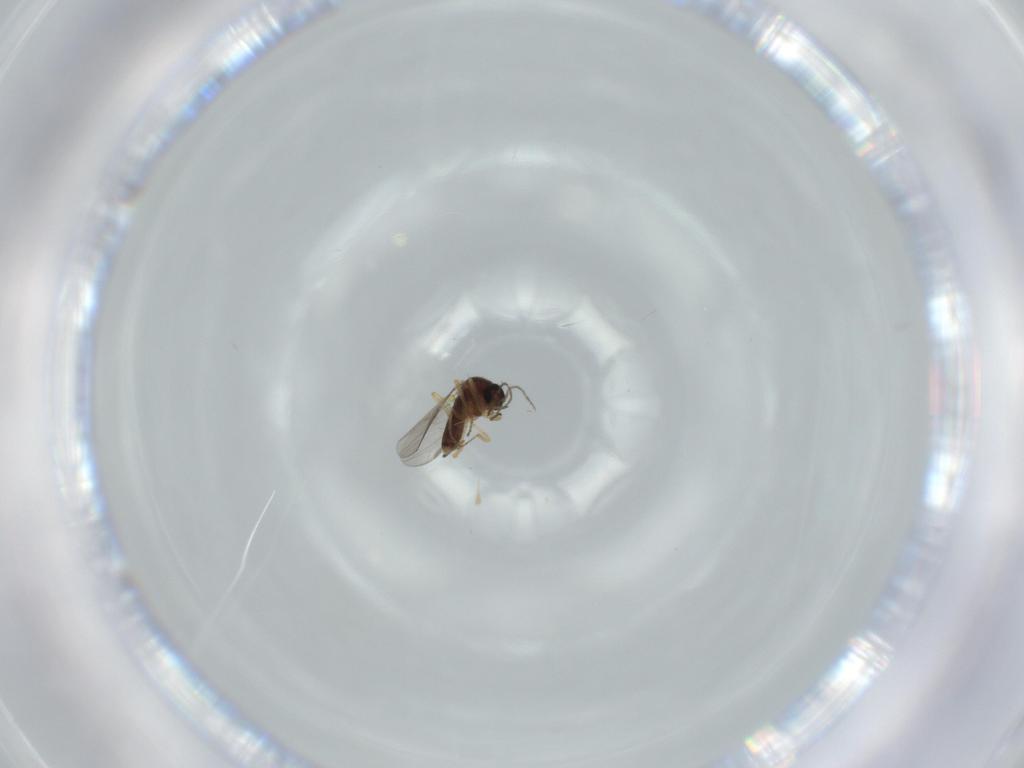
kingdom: Animalia
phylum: Arthropoda
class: Insecta
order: Diptera
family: Ceratopogonidae
